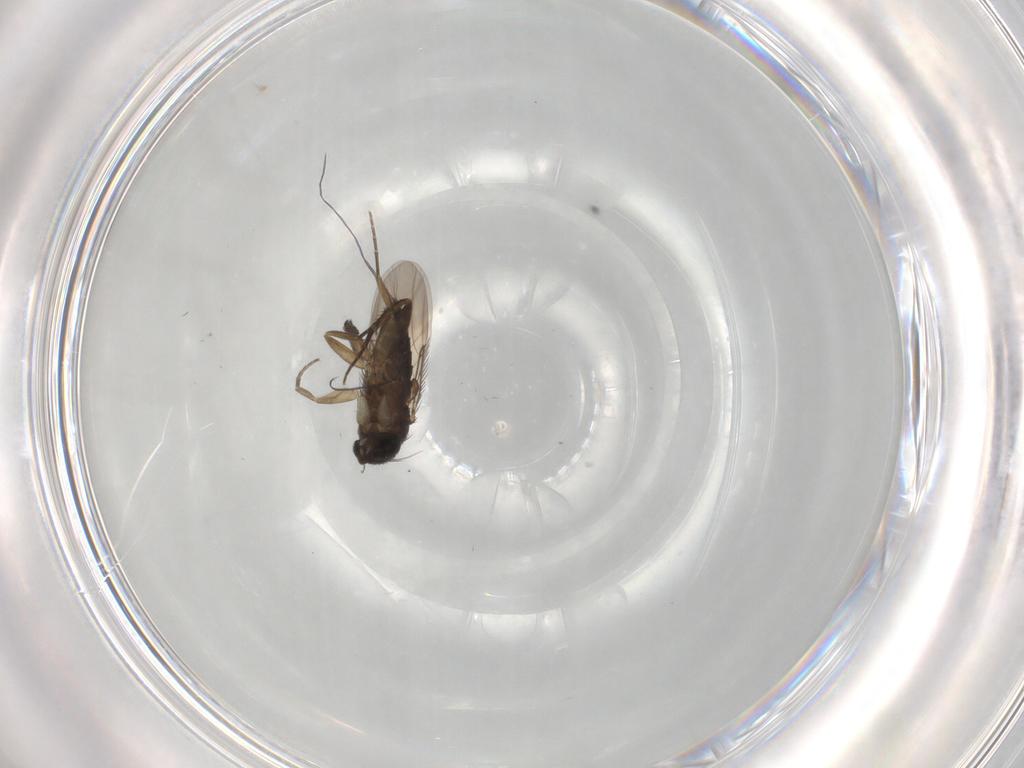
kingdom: Animalia
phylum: Arthropoda
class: Insecta
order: Diptera
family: Phoridae
